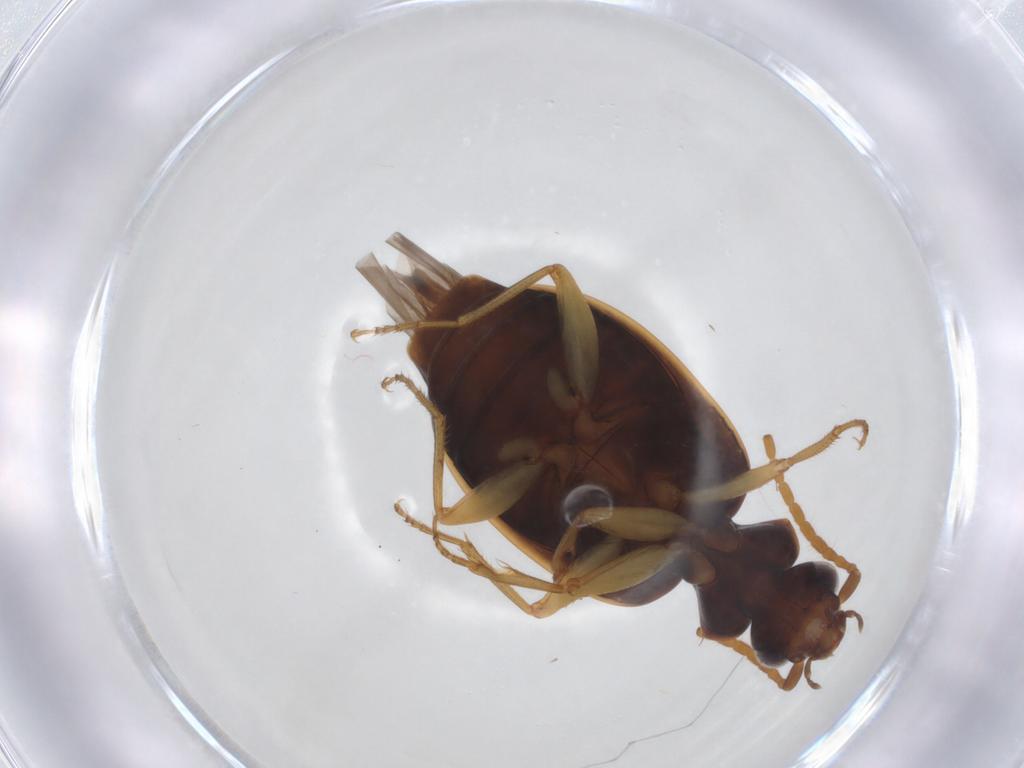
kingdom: Animalia
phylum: Arthropoda
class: Insecta
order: Coleoptera
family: Carabidae
